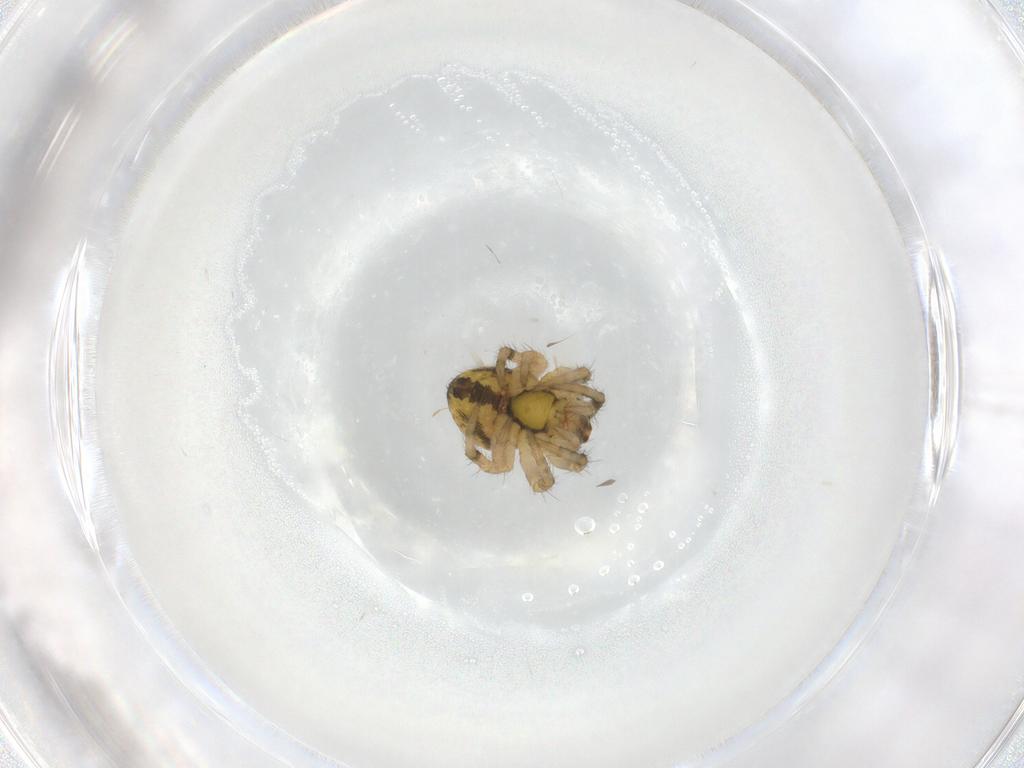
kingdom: Animalia
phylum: Arthropoda
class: Arachnida
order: Araneae
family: Araneidae
